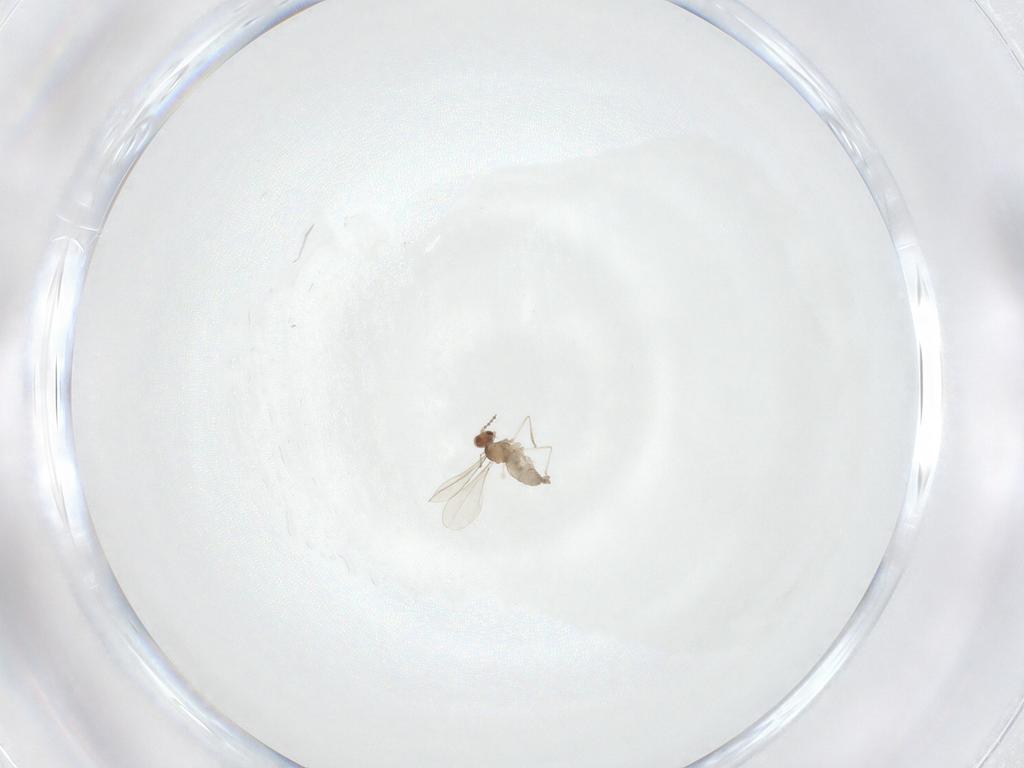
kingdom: Animalia
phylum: Arthropoda
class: Insecta
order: Diptera
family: Cecidomyiidae
